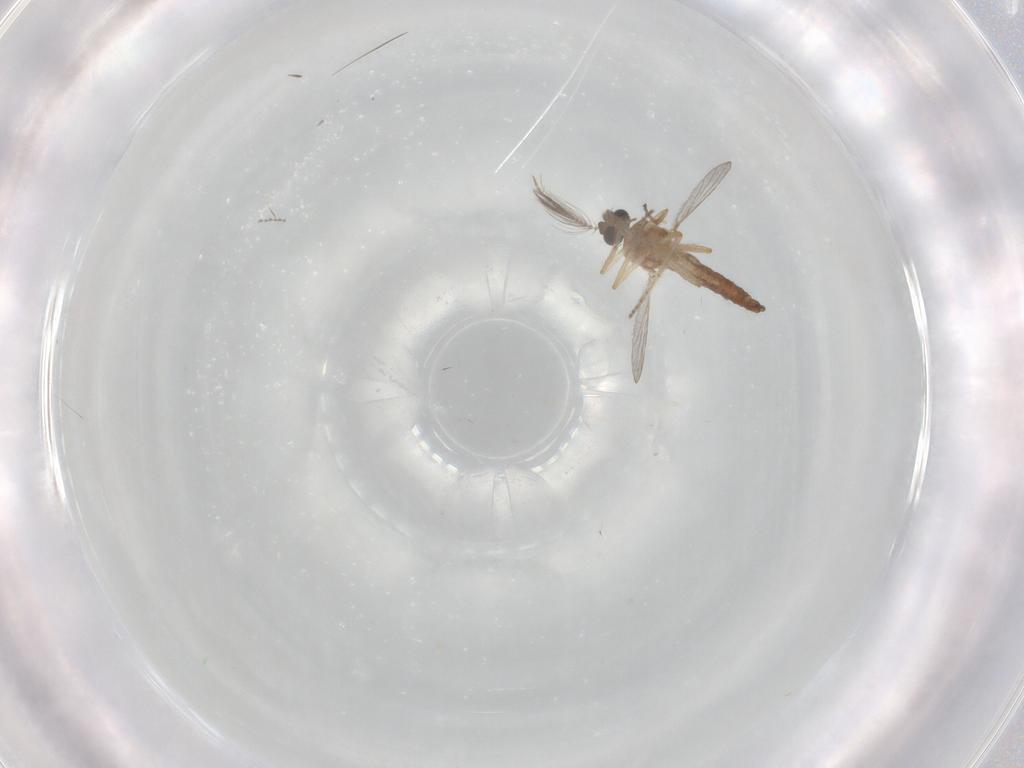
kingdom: Animalia
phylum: Arthropoda
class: Insecta
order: Diptera
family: Ceratopogonidae
